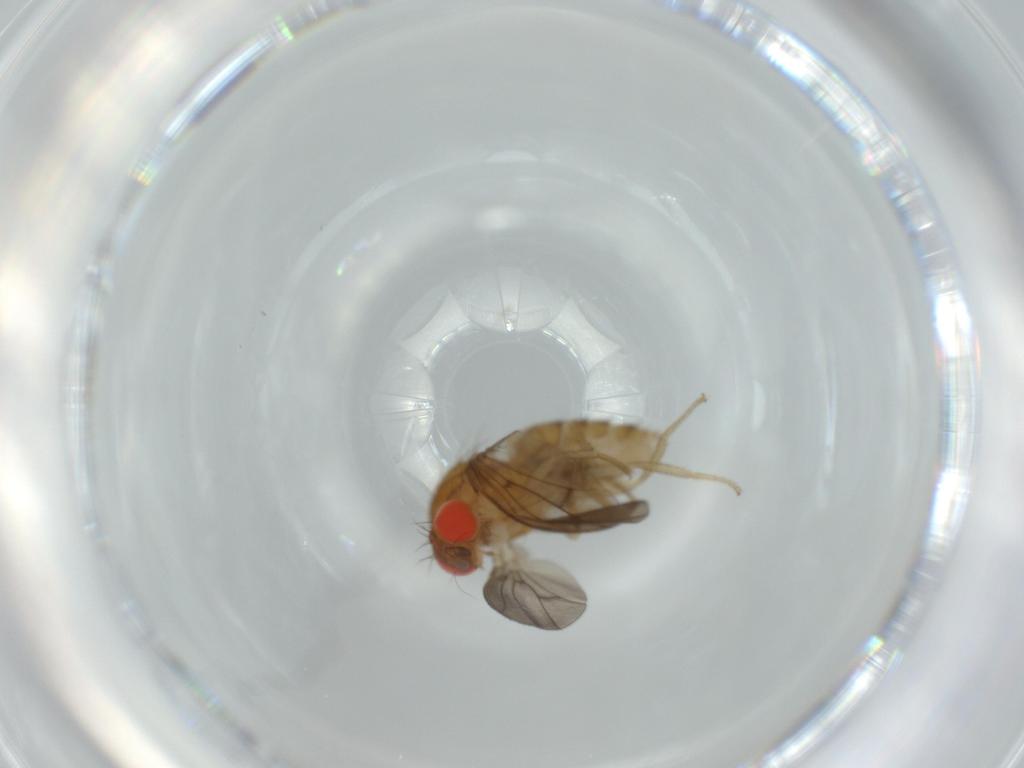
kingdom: Animalia
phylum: Arthropoda
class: Insecta
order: Diptera
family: Drosophilidae
